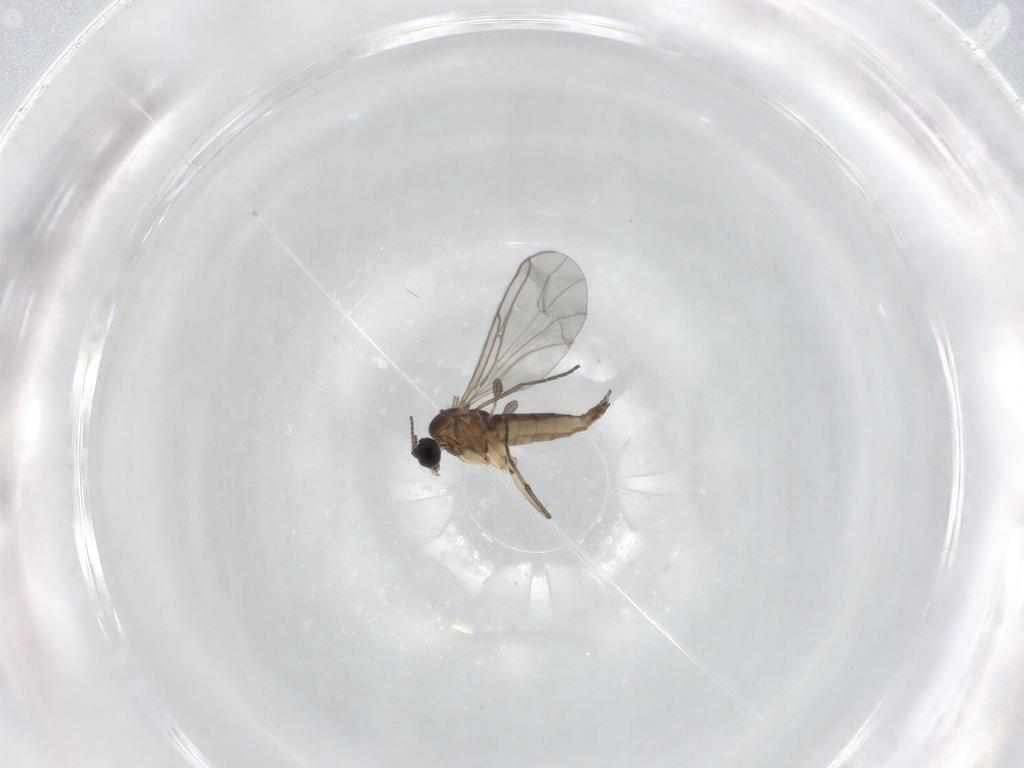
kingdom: Animalia
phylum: Arthropoda
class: Insecta
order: Diptera
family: Sciaridae
